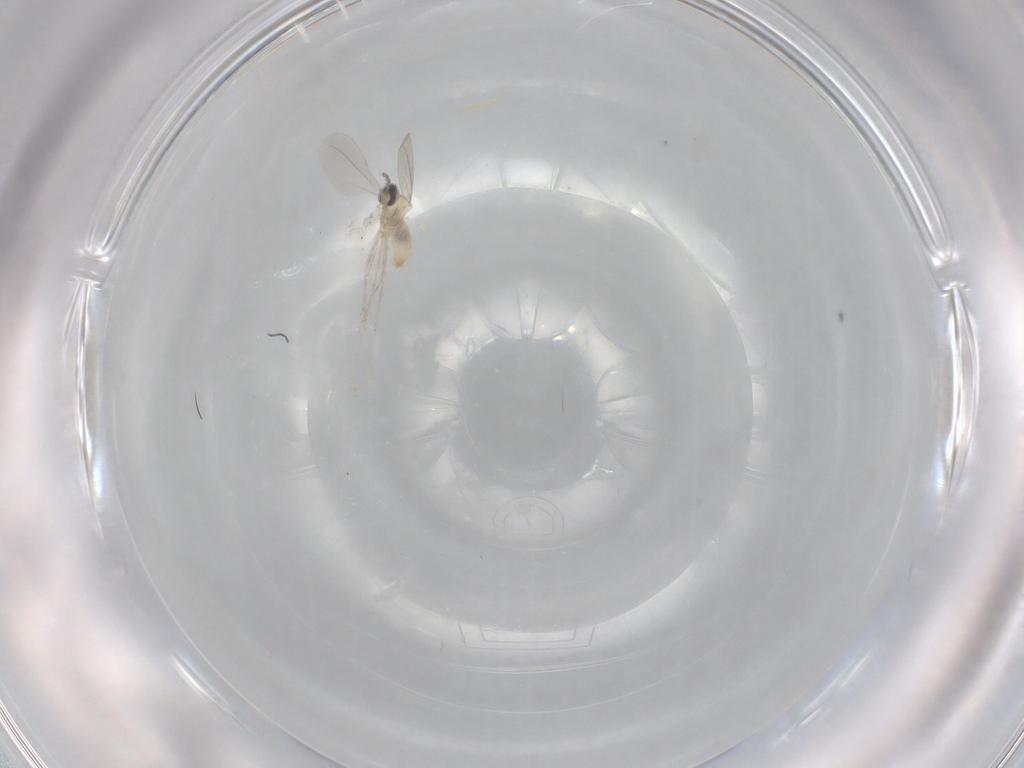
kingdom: Animalia
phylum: Arthropoda
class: Insecta
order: Diptera
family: Cecidomyiidae
